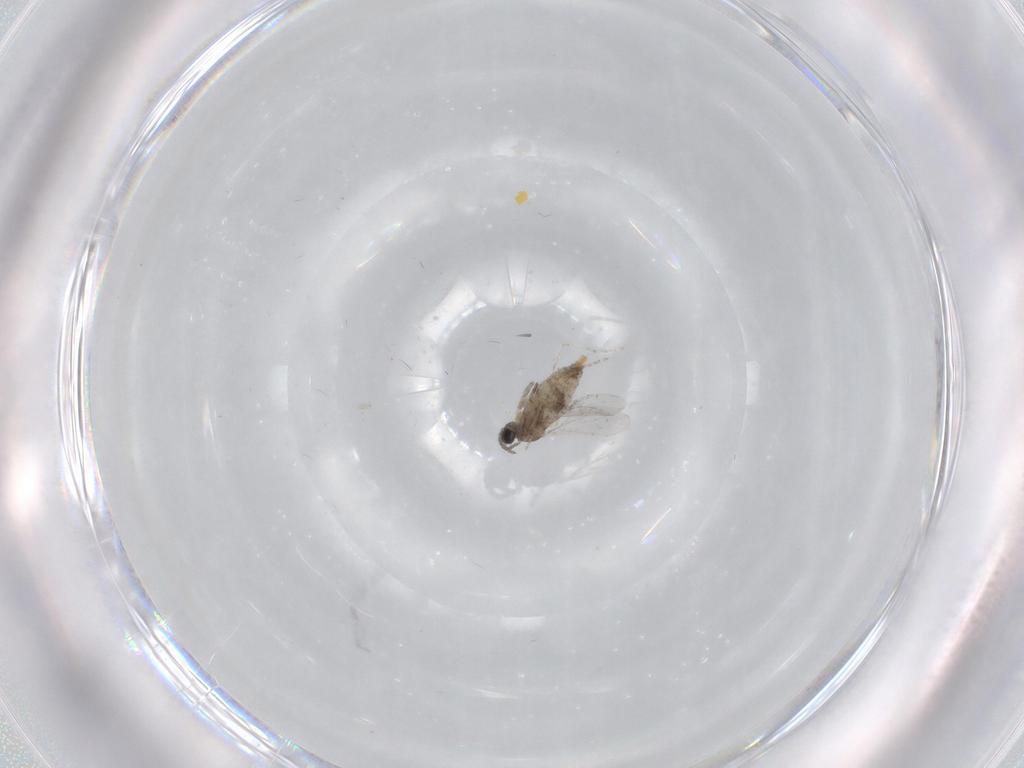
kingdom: Animalia
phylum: Arthropoda
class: Insecta
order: Diptera
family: Cecidomyiidae
